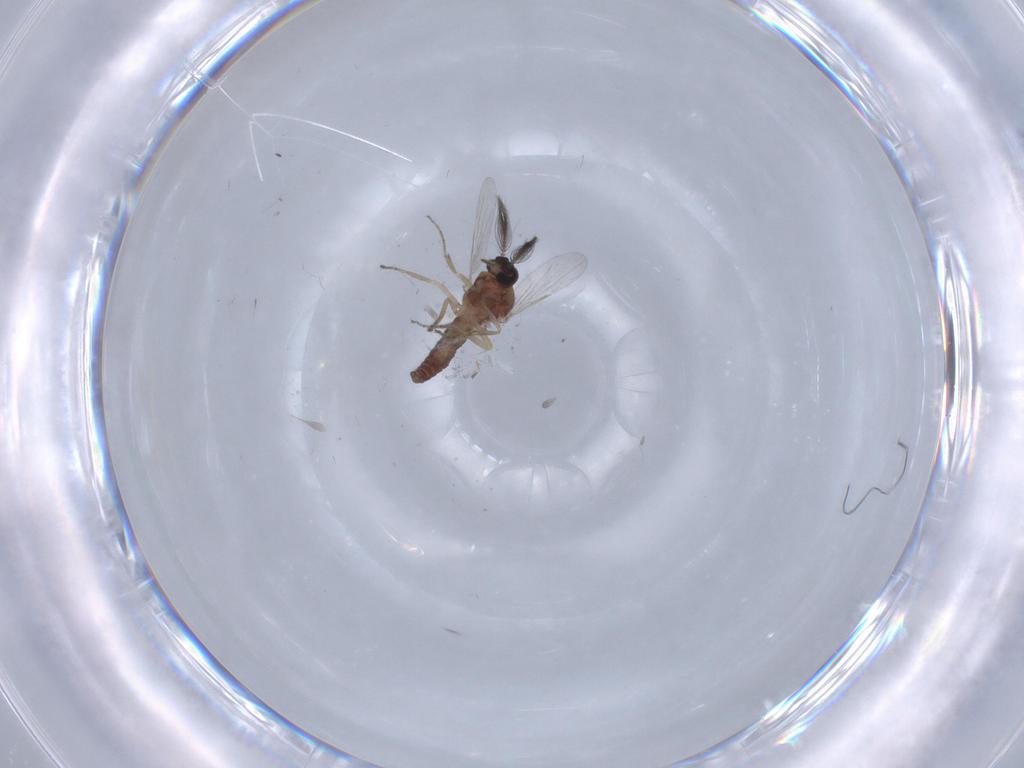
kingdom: Animalia
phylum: Arthropoda
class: Insecta
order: Diptera
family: Ceratopogonidae
